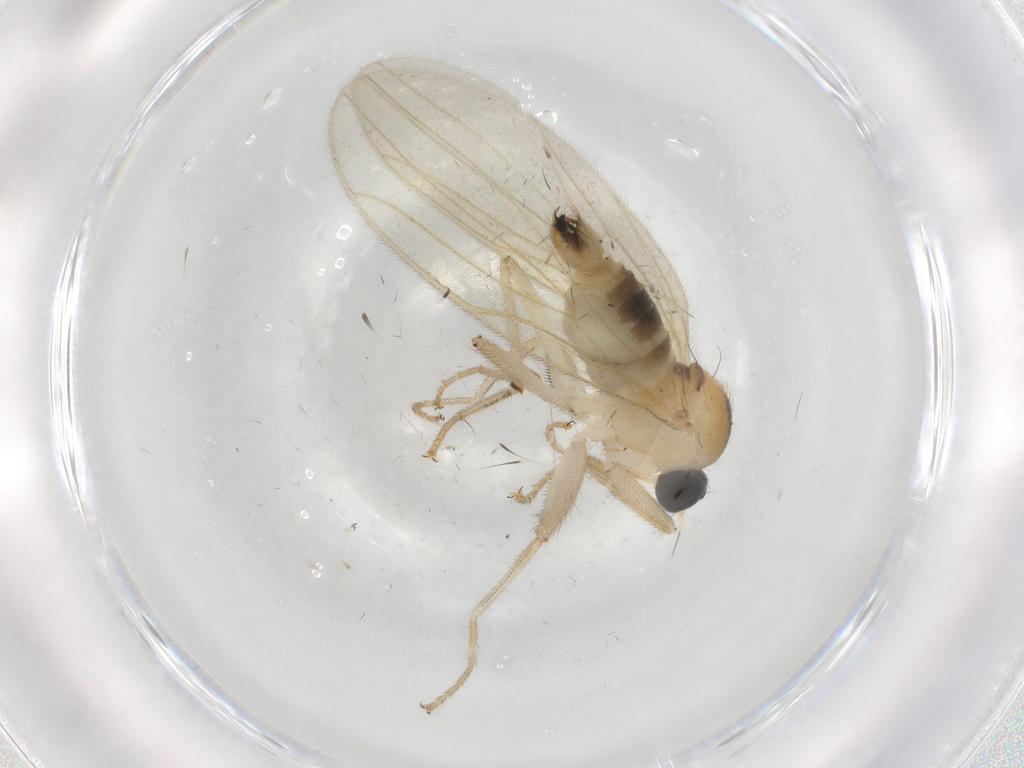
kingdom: Animalia
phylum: Arthropoda
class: Insecta
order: Diptera
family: Hybotidae
